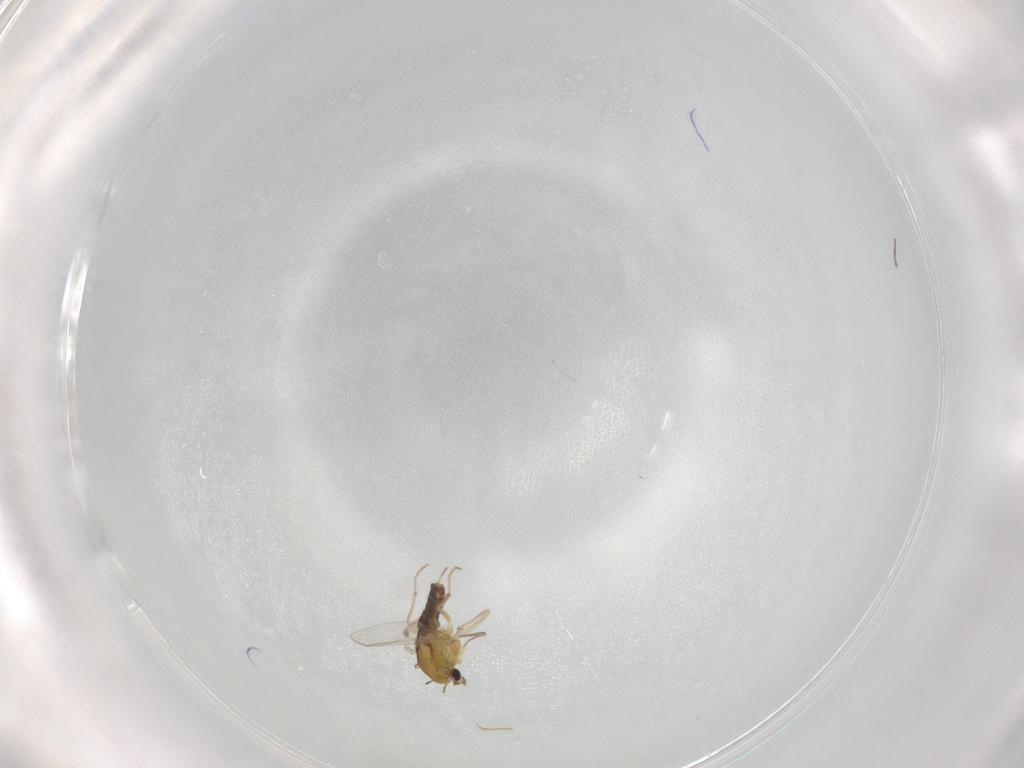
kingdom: Animalia
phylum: Arthropoda
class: Insecta
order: Diptera
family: Cecidomyiidae
